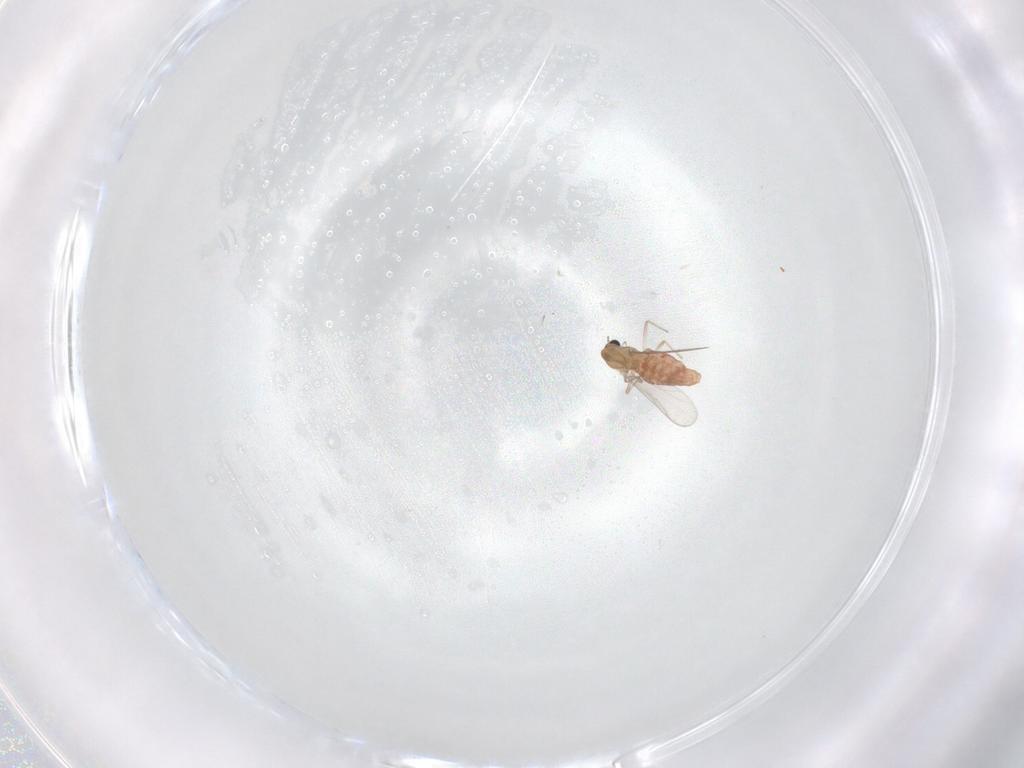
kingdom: Animalia
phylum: Arthropoda
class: Insecta
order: Diptera
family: Chironomidae
